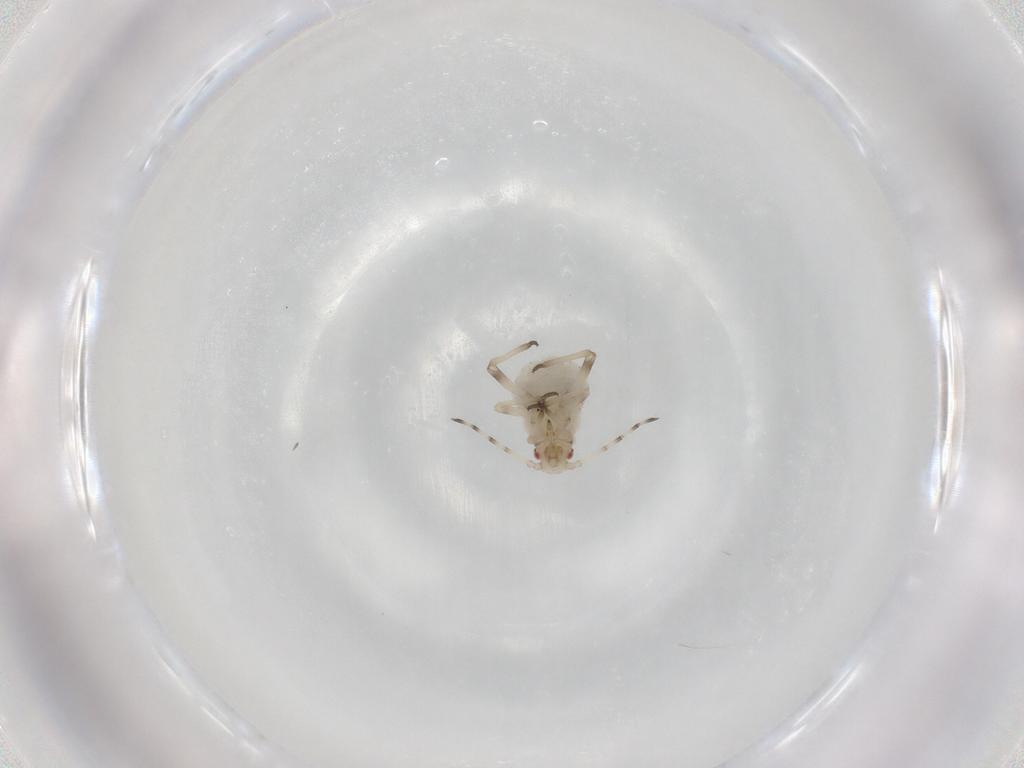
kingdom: Animalia
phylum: Arthropoda
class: Insecta
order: Hemiptera
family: Aphididae
